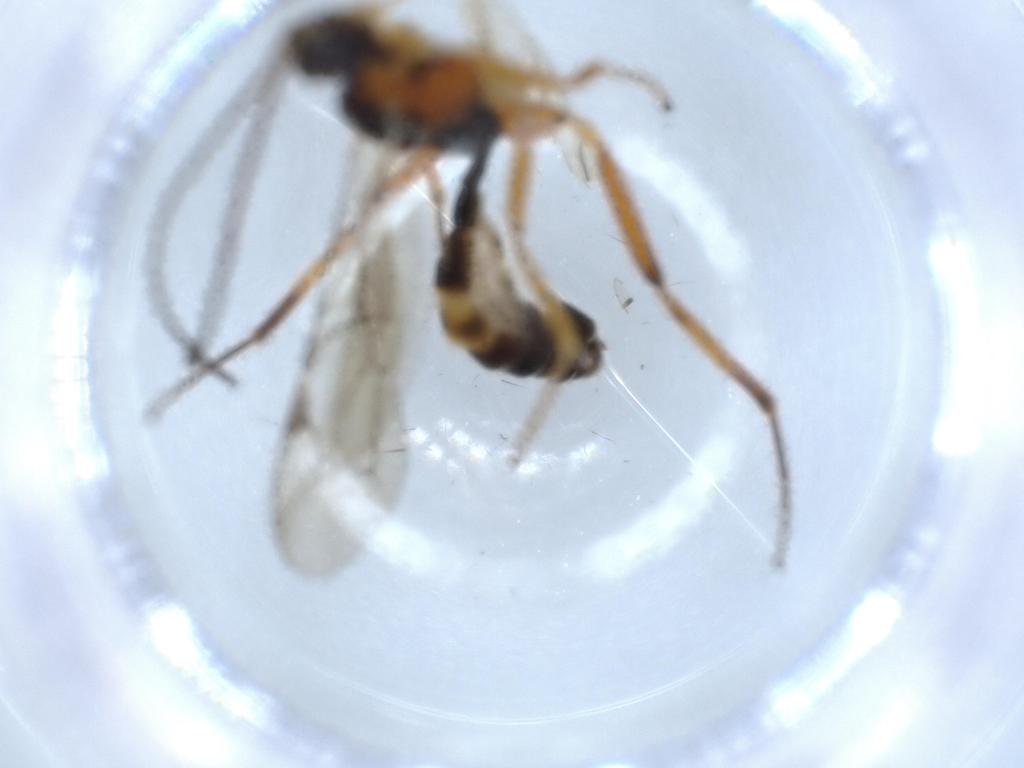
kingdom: Animalia
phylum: Arthropoda
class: Insecta
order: Hymenoptera
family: Ichneumonidae
